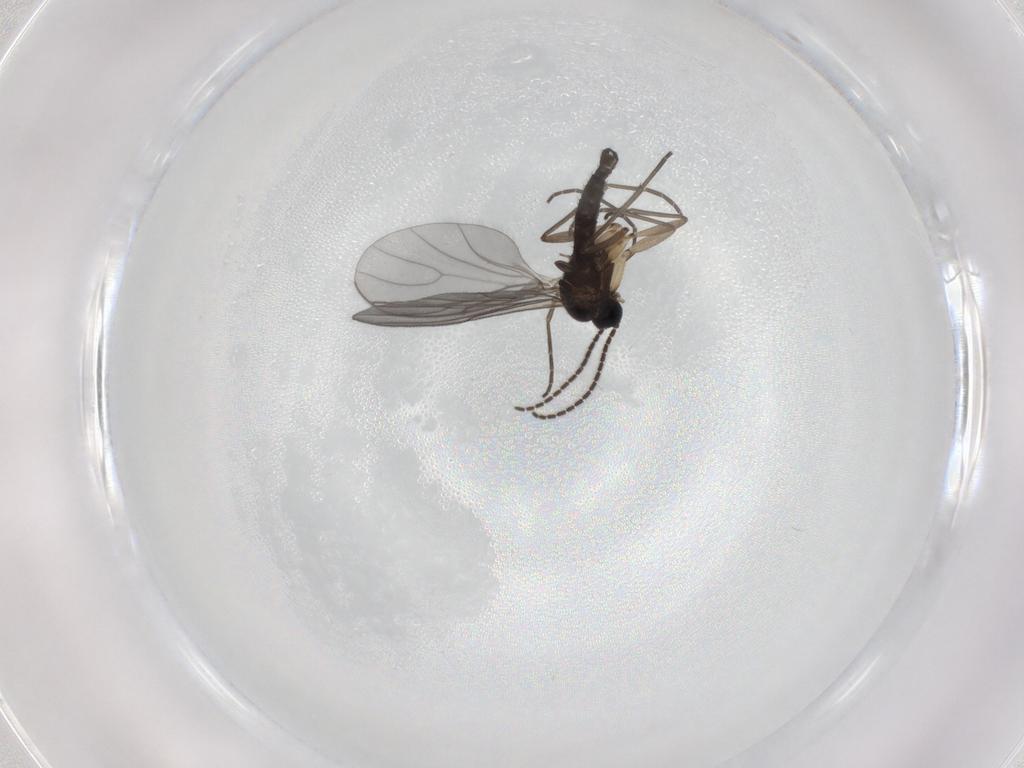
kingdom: Animalia
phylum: Arthropoda
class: Insecta
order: Diptera
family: Sciaridae
